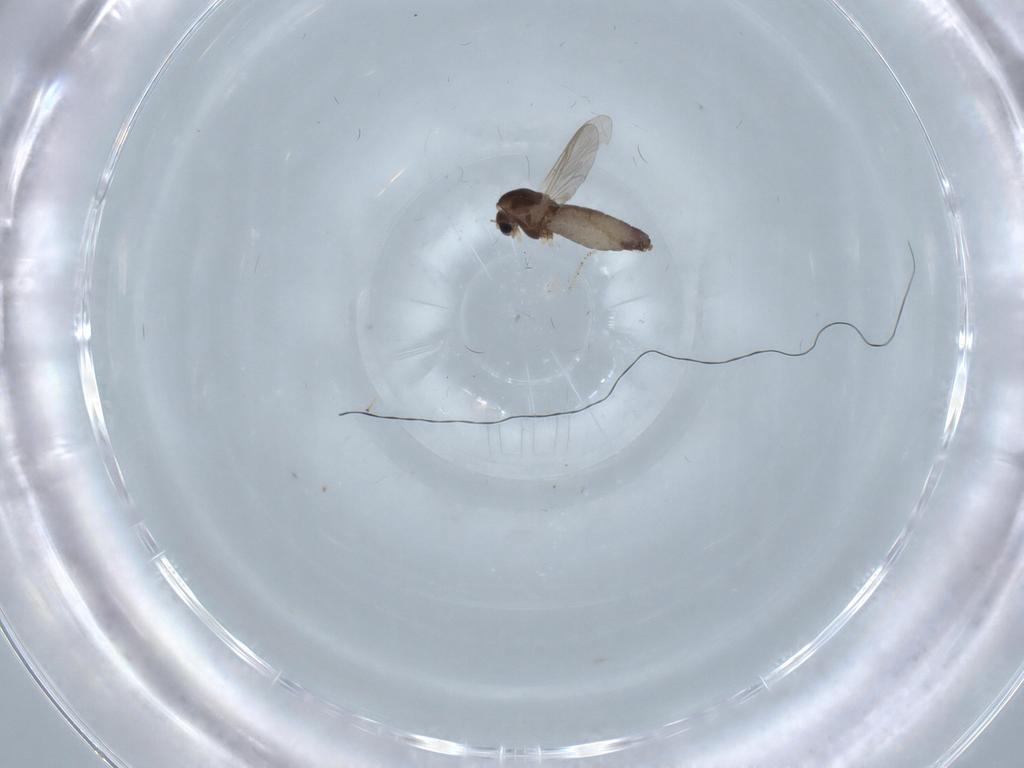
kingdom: Animalia
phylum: Arthropoda
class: Insecta
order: Diptera
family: Chironomidae
